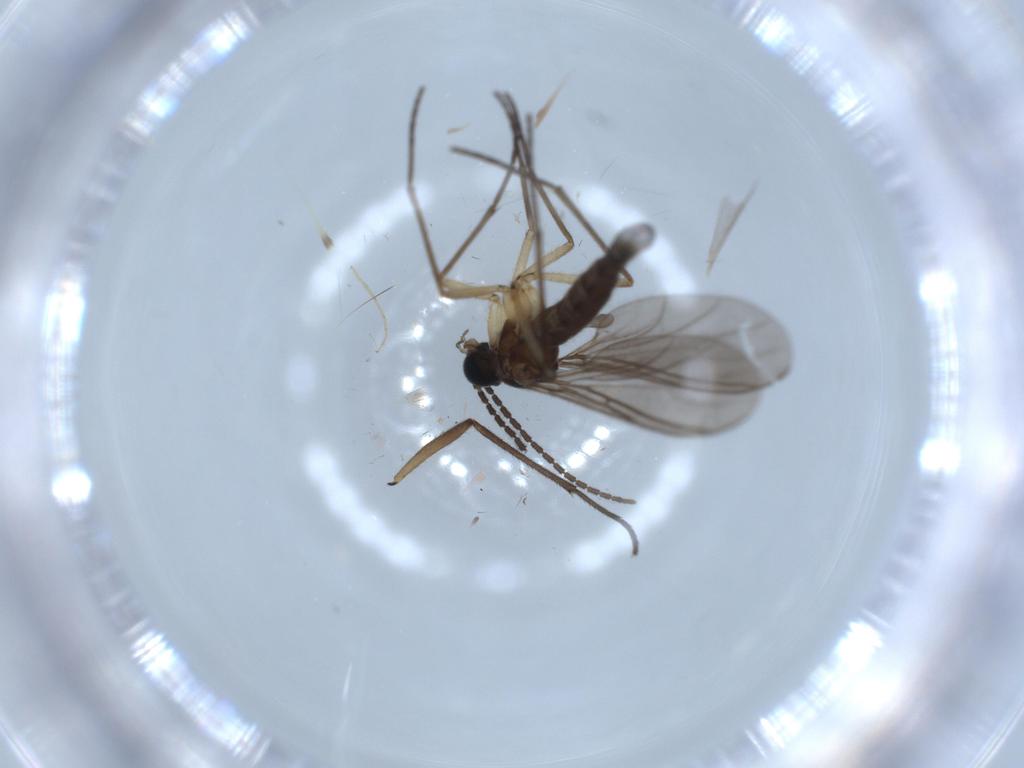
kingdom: Animalia
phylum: Arthropoda
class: Insecta
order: Diptera
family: Chironomidae
